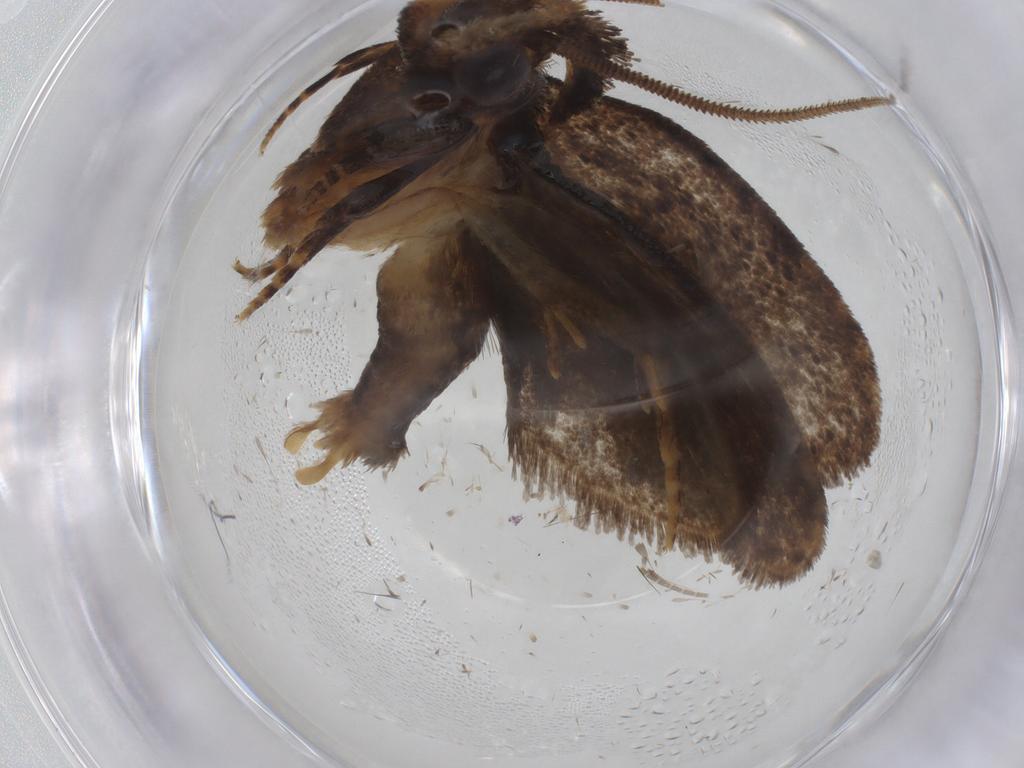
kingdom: Animalia
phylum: Arthropoda
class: Insecta
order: Lepidoptera
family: Tineidae
